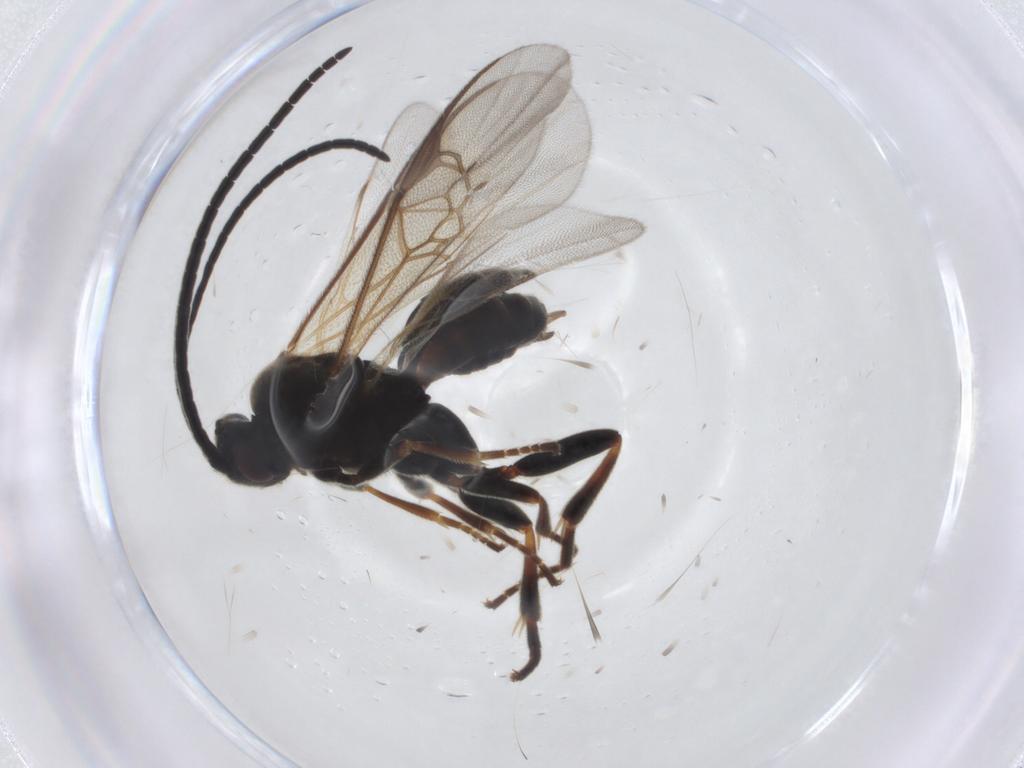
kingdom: Animalia
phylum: Arthropoda
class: Insecta
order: Hymenoptera
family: Braconidae
